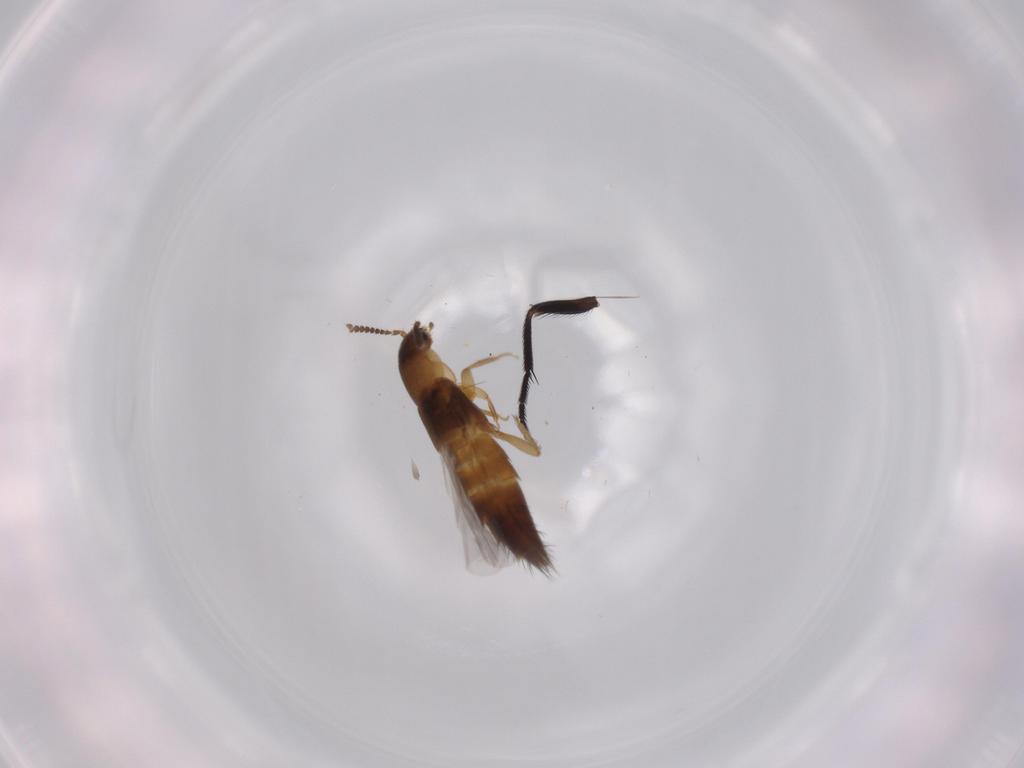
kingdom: Animalia
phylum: Arthropoda
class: Insecta
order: Coleoptera
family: Staphylinidae
